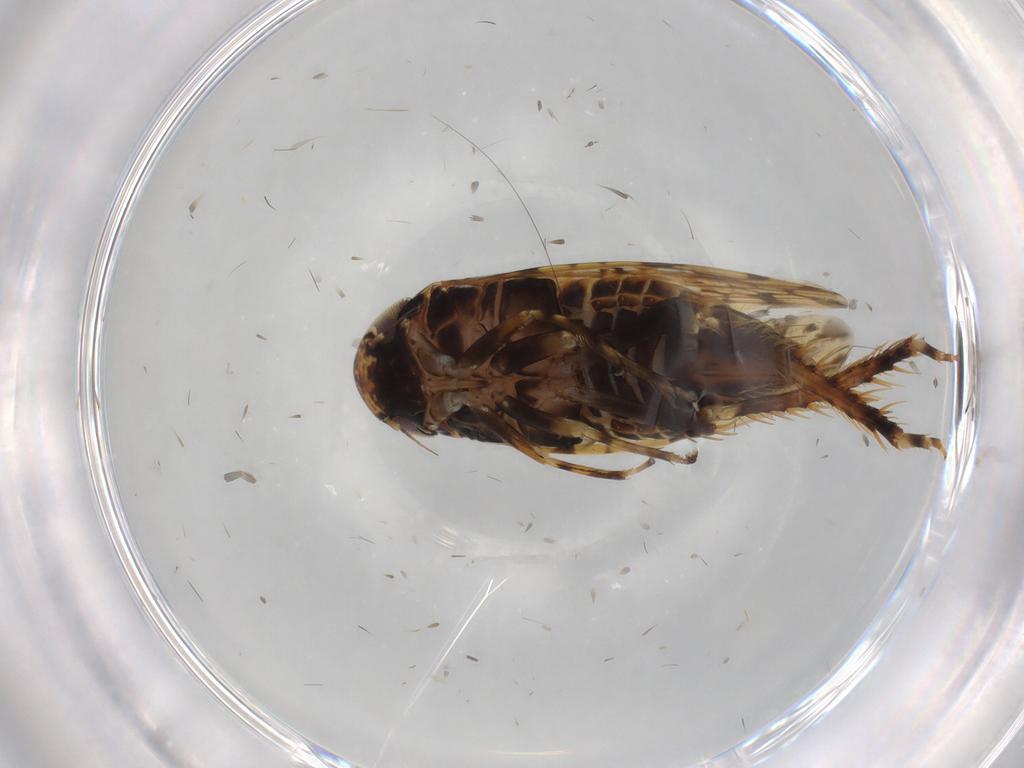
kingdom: Animalia
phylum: Arthropoda
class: Insecta
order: Hemiptera
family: Cicadellidae
